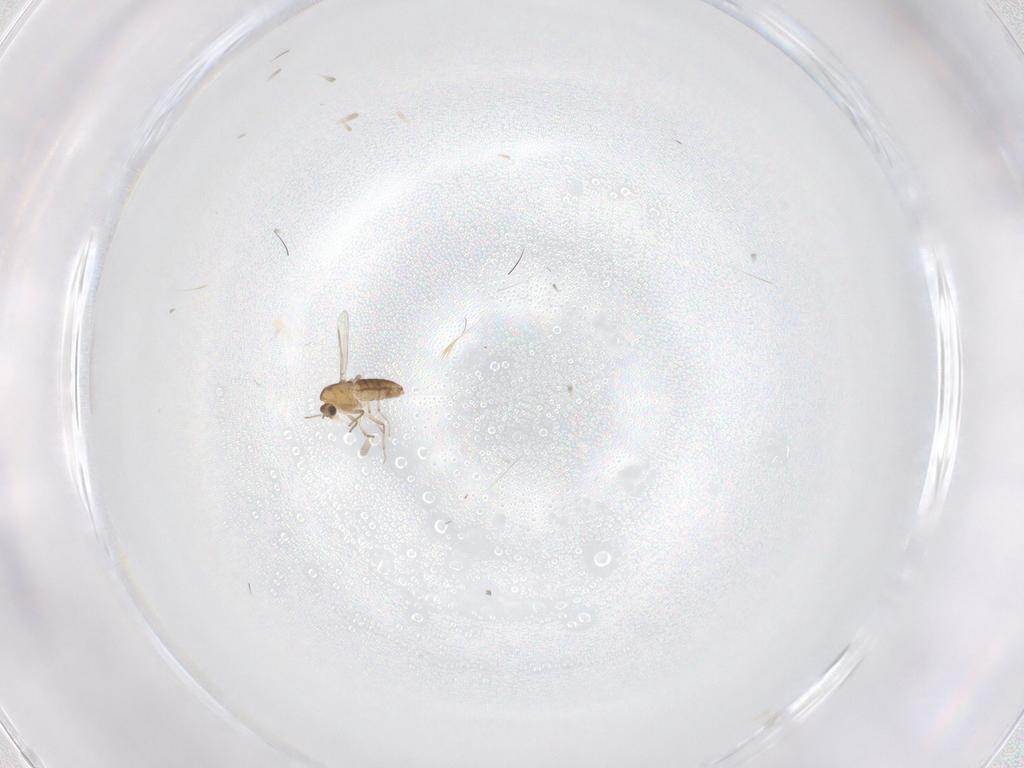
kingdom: Animalia
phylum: Arthropoda
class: Insecta
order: Diptera
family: Chironomidae
